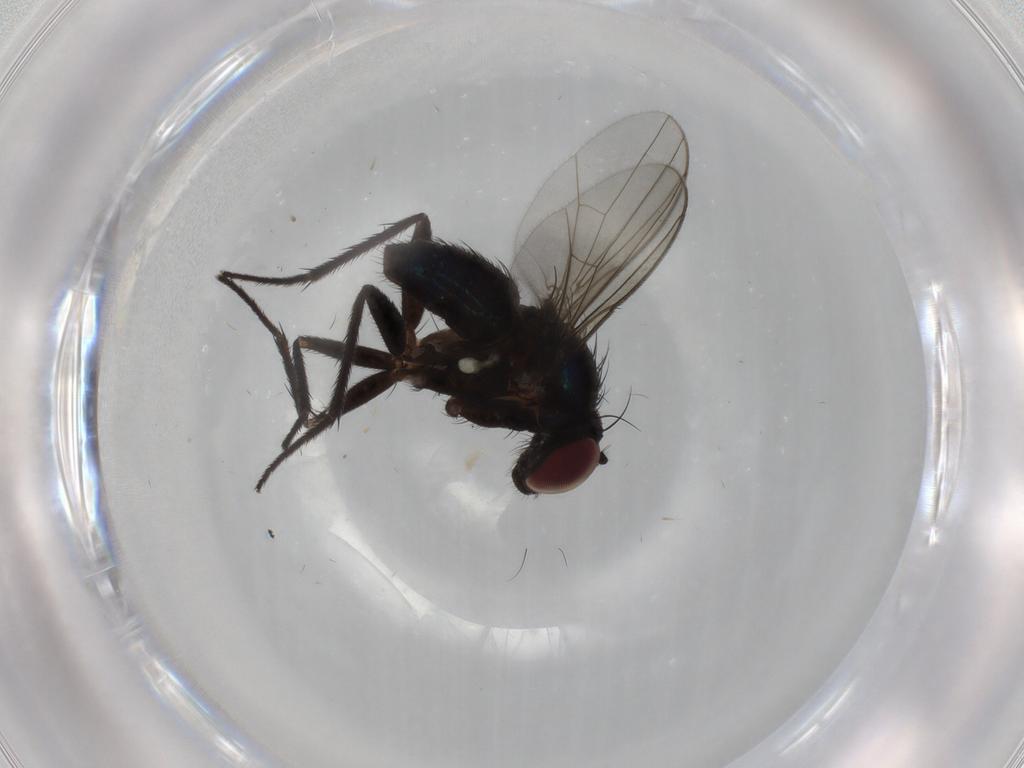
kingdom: Animalia
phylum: Arthropoda
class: Insecta
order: Diptera
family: Dolichopodidae
